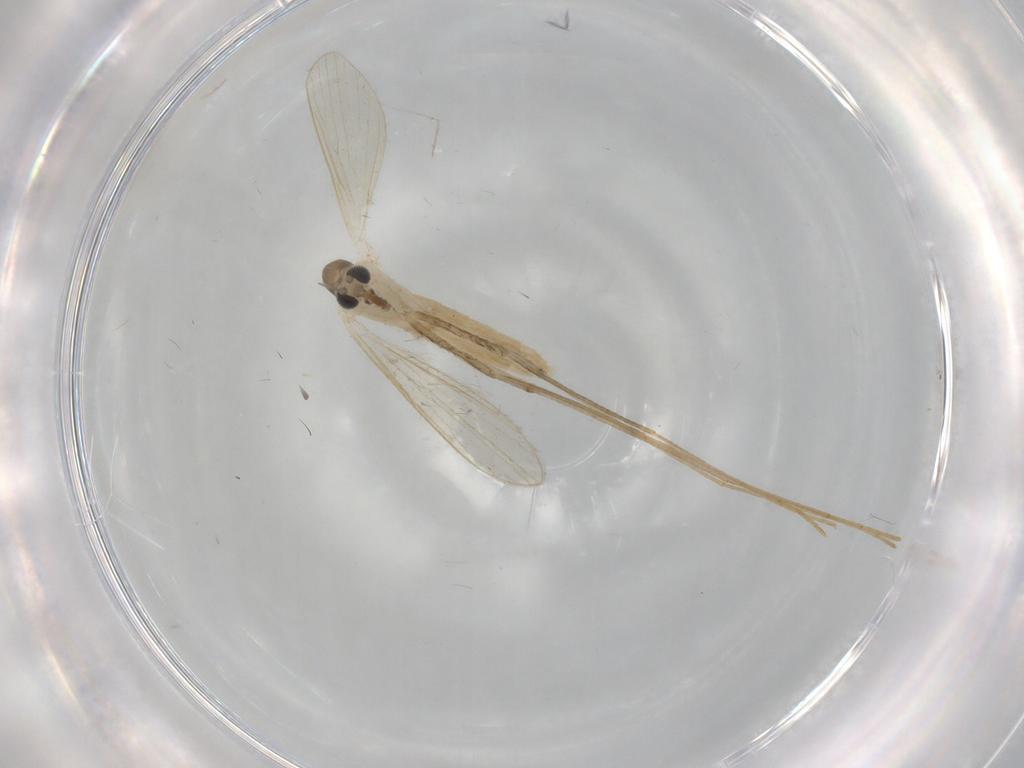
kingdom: Animalia
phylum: Arthropoda
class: Insecta
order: Diptera
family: Psychodidae
